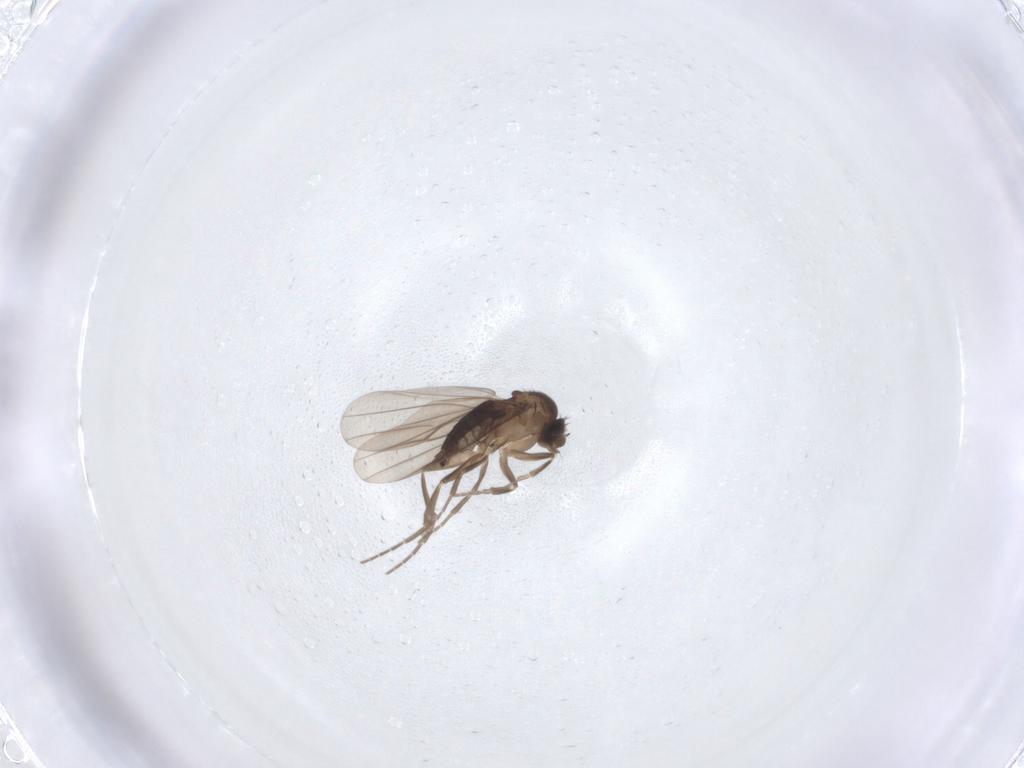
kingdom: Animalia
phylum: Arthropoda
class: Insecta
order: Diptera
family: Phoridae
